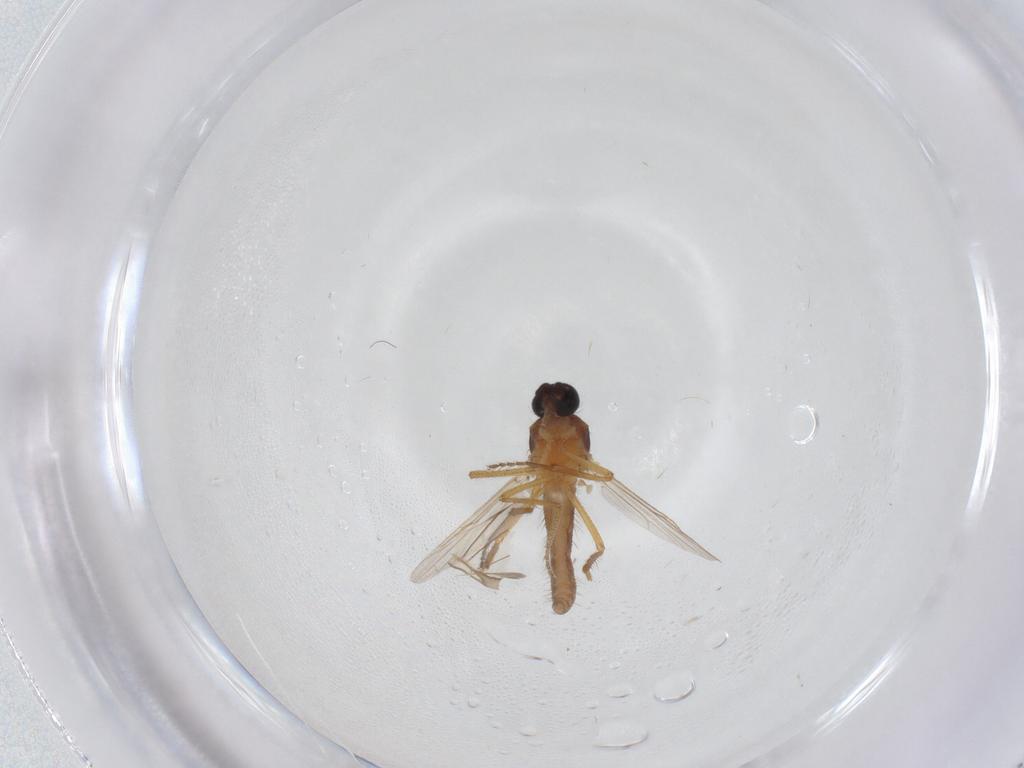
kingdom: Animalia
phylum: Arthropoda
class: Insecta
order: Diptera
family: Ceratopogonidae
